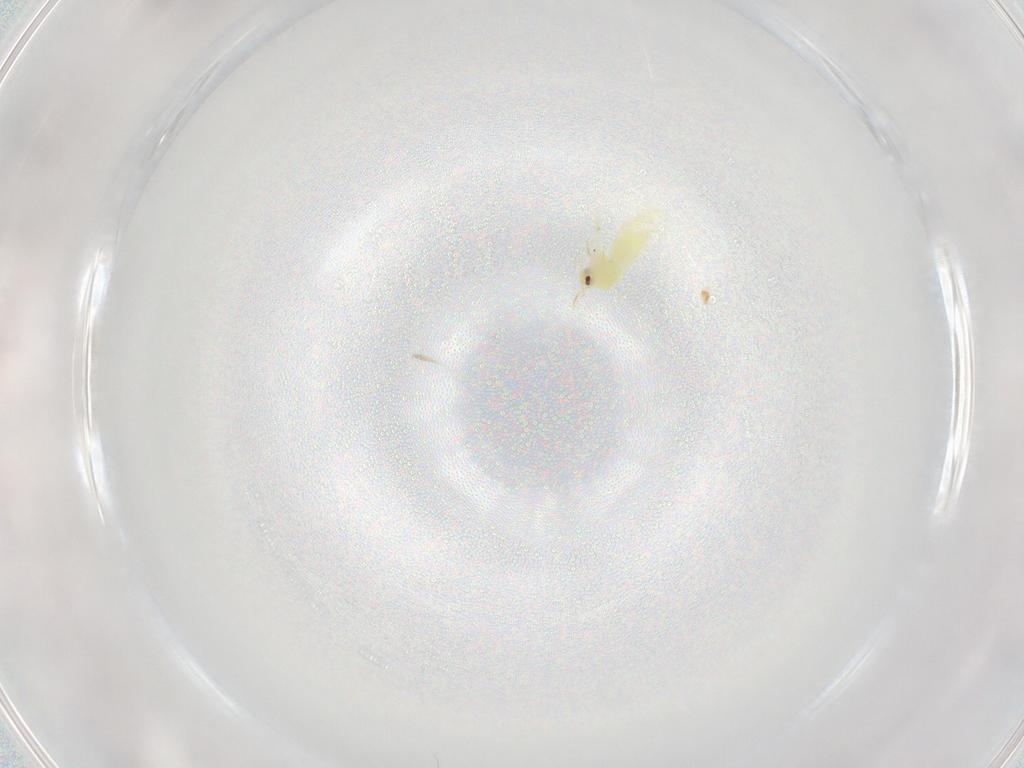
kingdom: Animalia
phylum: Arthropoda
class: Insecta
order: Hemiptera
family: Aleyrodidae
